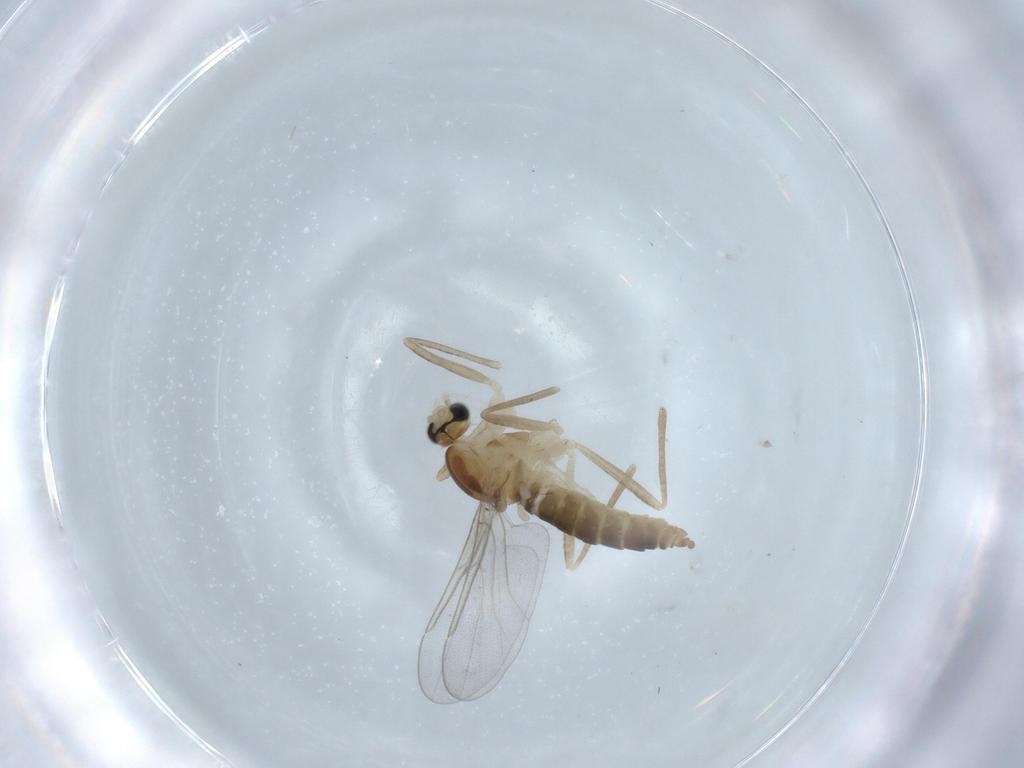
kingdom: Animalia
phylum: Arthropoda
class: Insecta
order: Diptera
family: Cecidomyiidae
